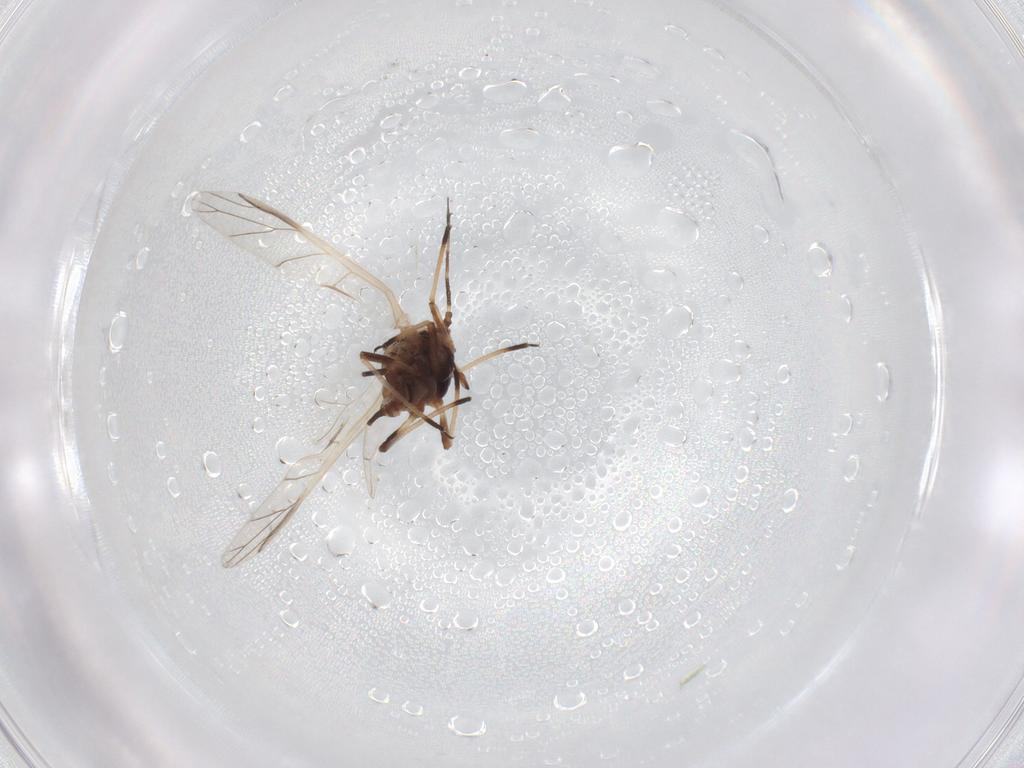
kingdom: Animalia
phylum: Arthropoda
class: Insecta
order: Hemiptera
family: Aphididae
